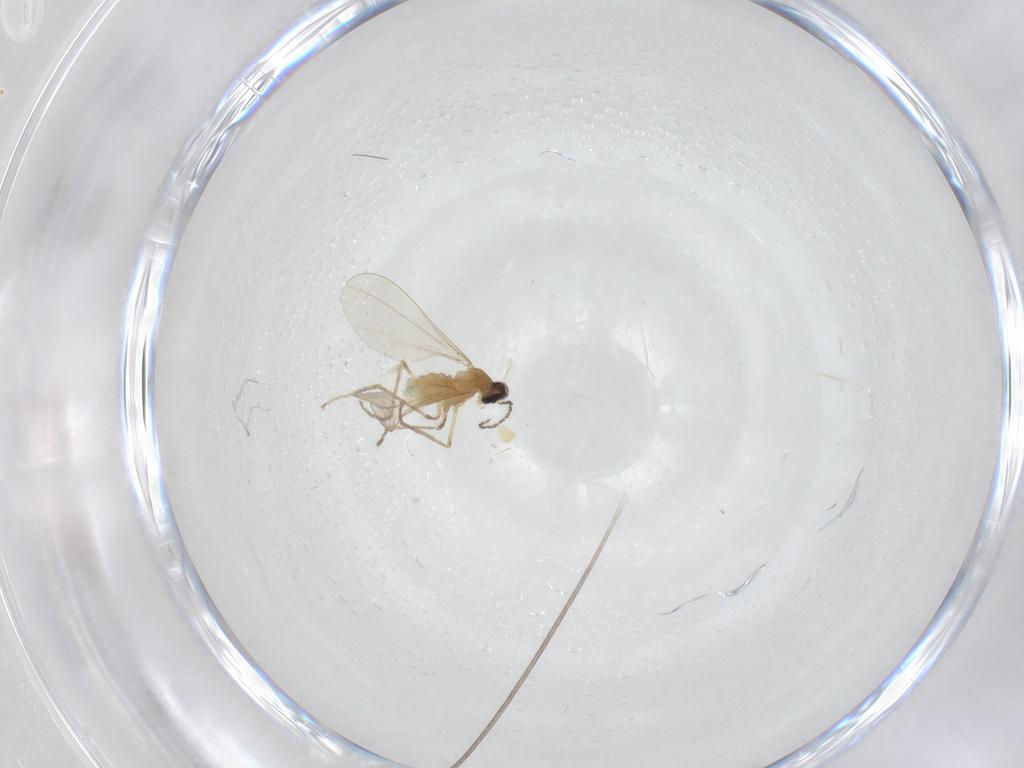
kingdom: Animalia
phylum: Arthropoda
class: Insecta
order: Diptera
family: Cecidomyiidae
